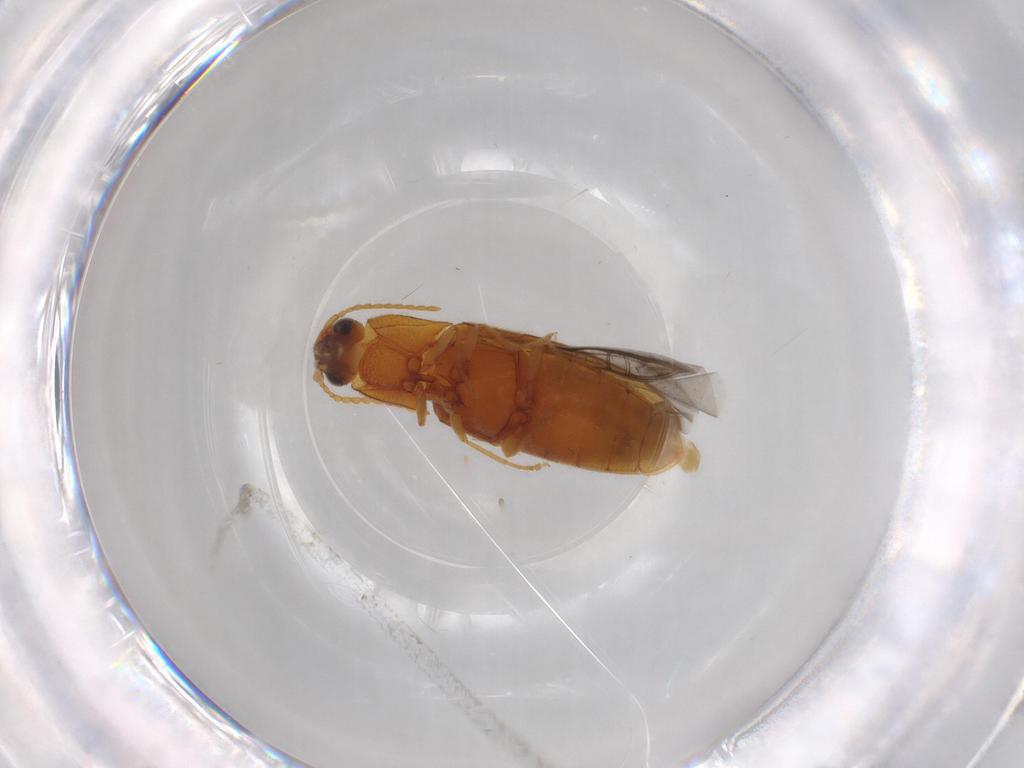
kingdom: Animalia
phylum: Arthropoda
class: Insecta
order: Coleoptera
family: Elateridae
